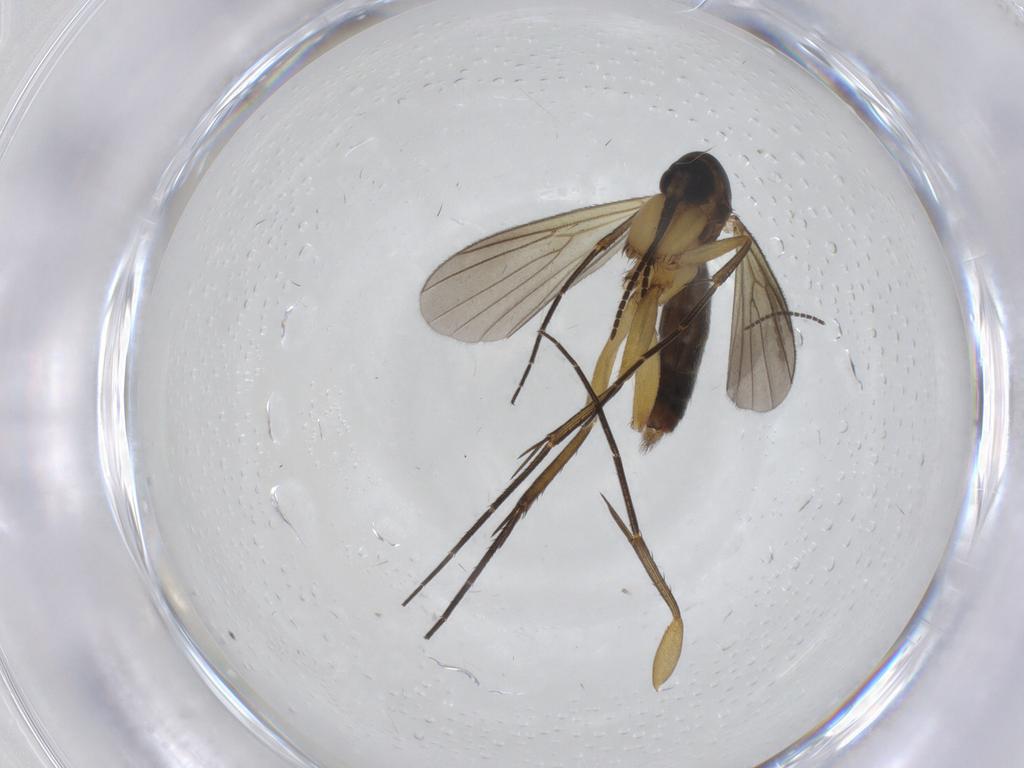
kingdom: Animalia
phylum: Arthropoda
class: Insecta
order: Diptera
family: Mycetophilidae
